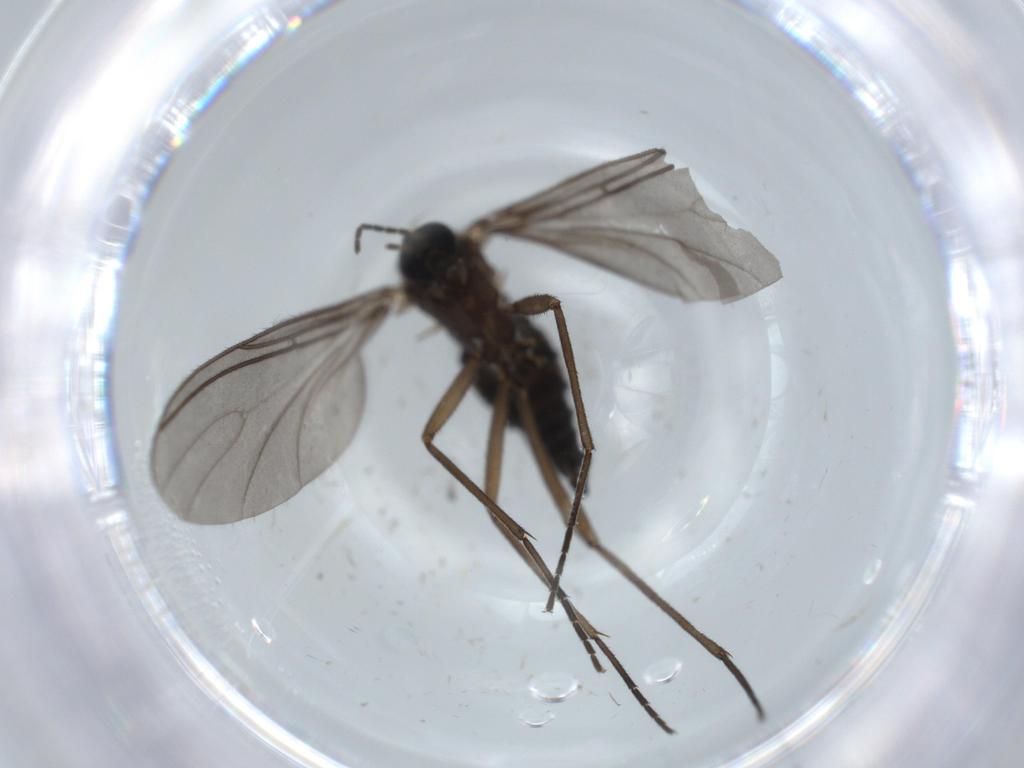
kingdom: Animalia
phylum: Arthropoda
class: Insecta
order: Diptera
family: Sciaridae
